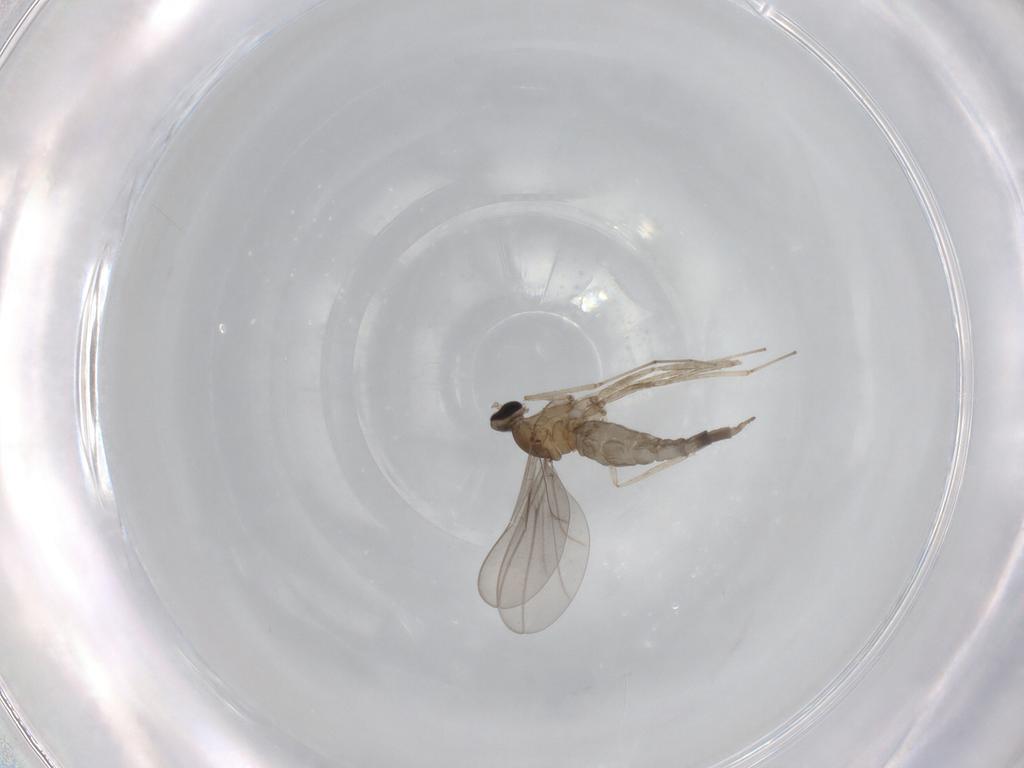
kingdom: Animalia
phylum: Arthropoda
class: Insecta
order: Diptera
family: Cecidomyiidae
